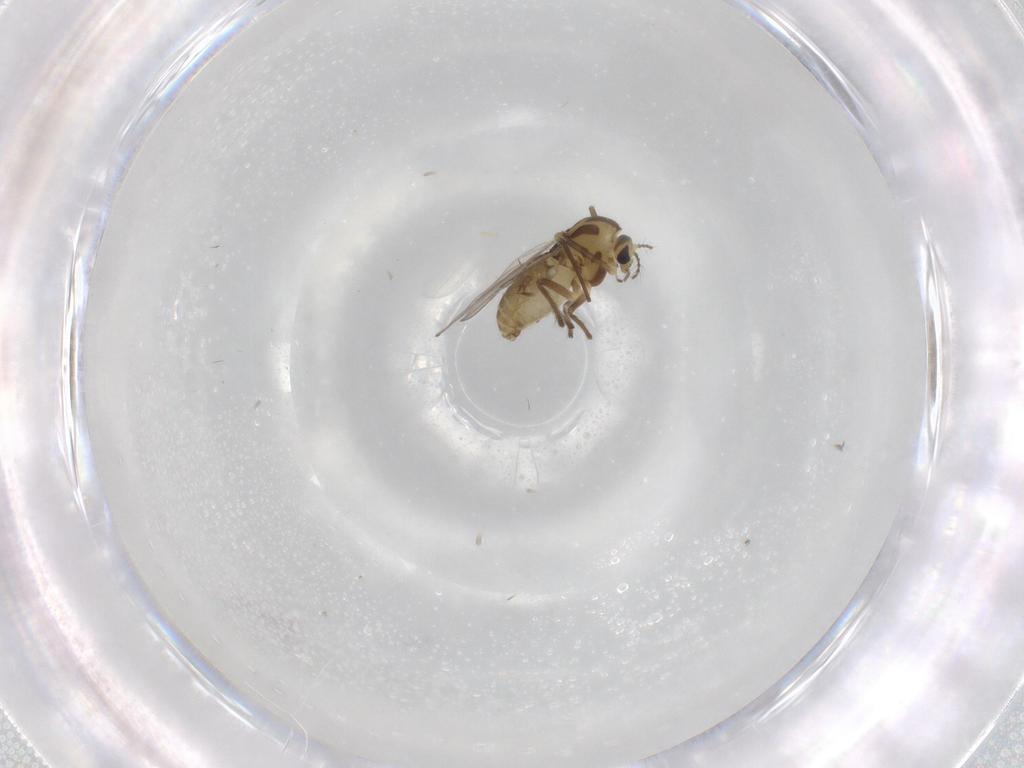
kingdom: Animalia
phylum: Arthropoda
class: Insecta
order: Diptera
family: Chironomidae
